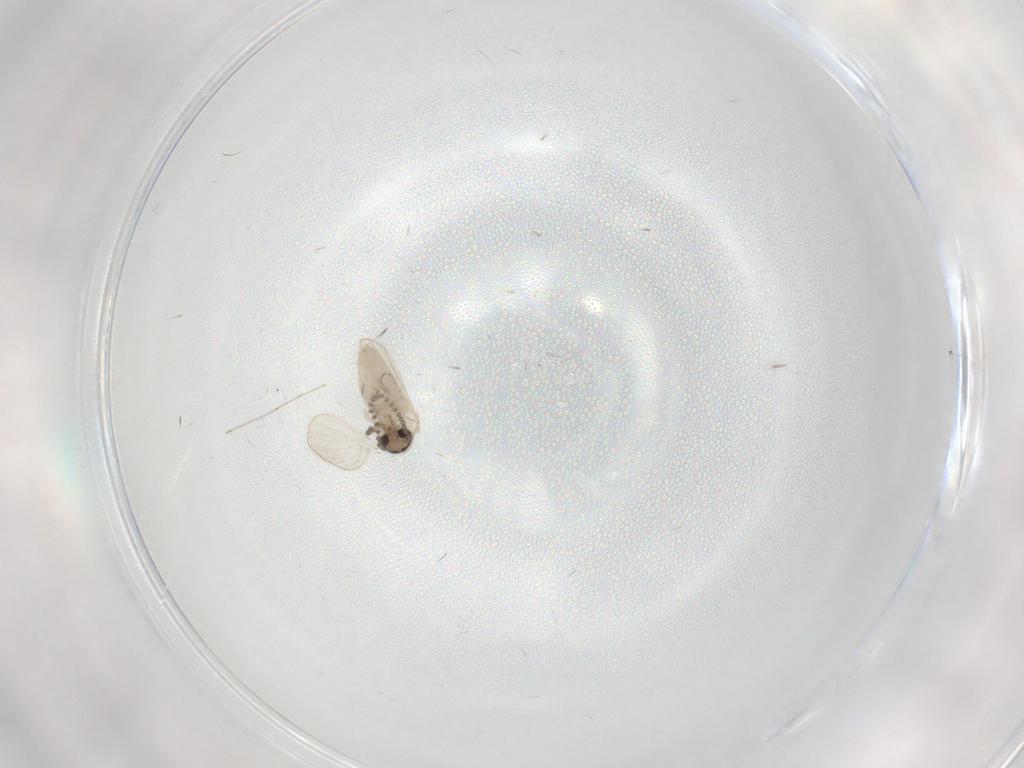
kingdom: Animalia
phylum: Arthropoda
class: Insecta
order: Diptera
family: Psychodidae
